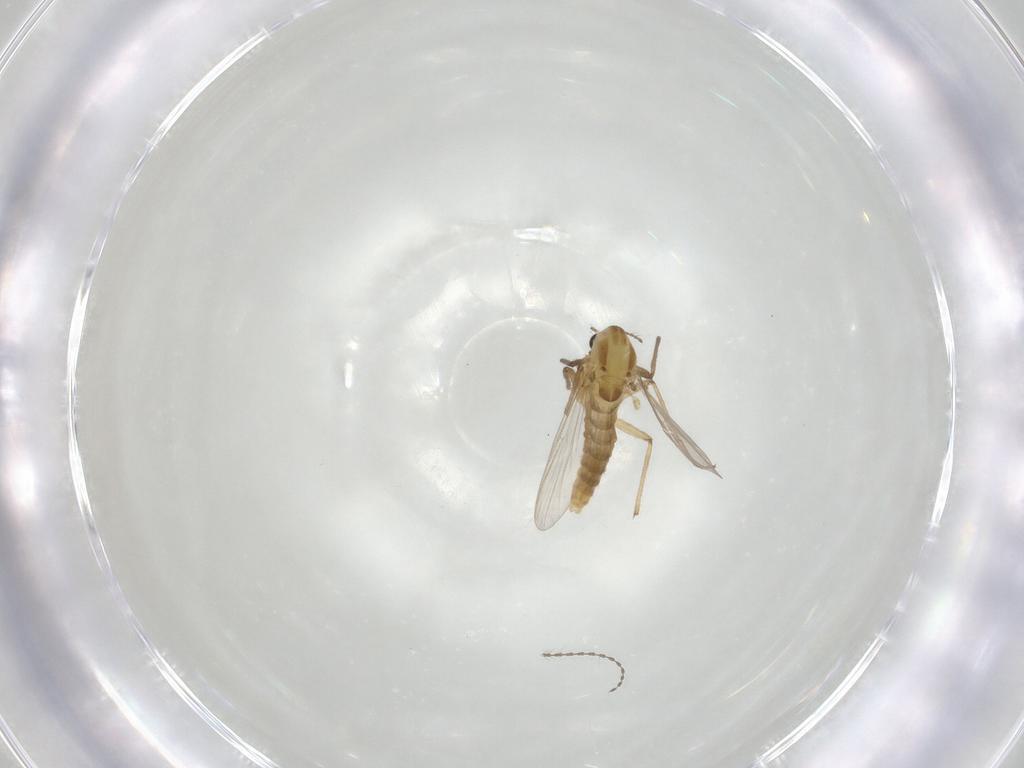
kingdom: Animalia
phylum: Arthropoda
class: Insecta
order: Diptera
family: Chironomidae
